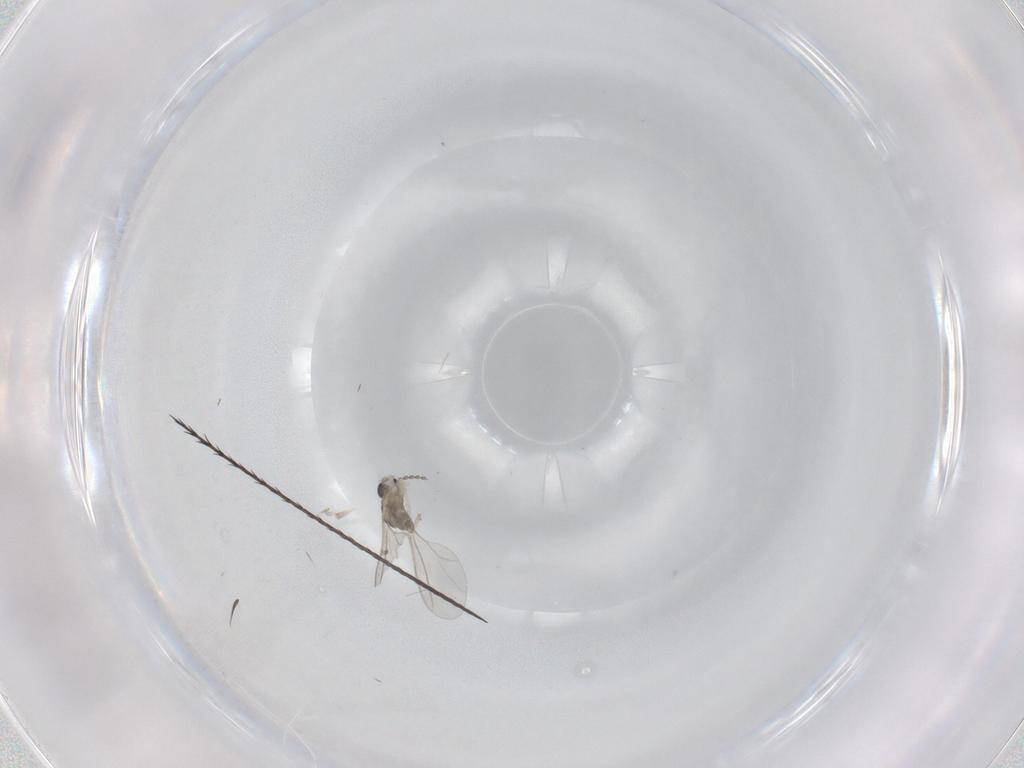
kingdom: Animalia
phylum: Arthropoda
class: Insecta
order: Diptera
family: Cecidomyiidae
